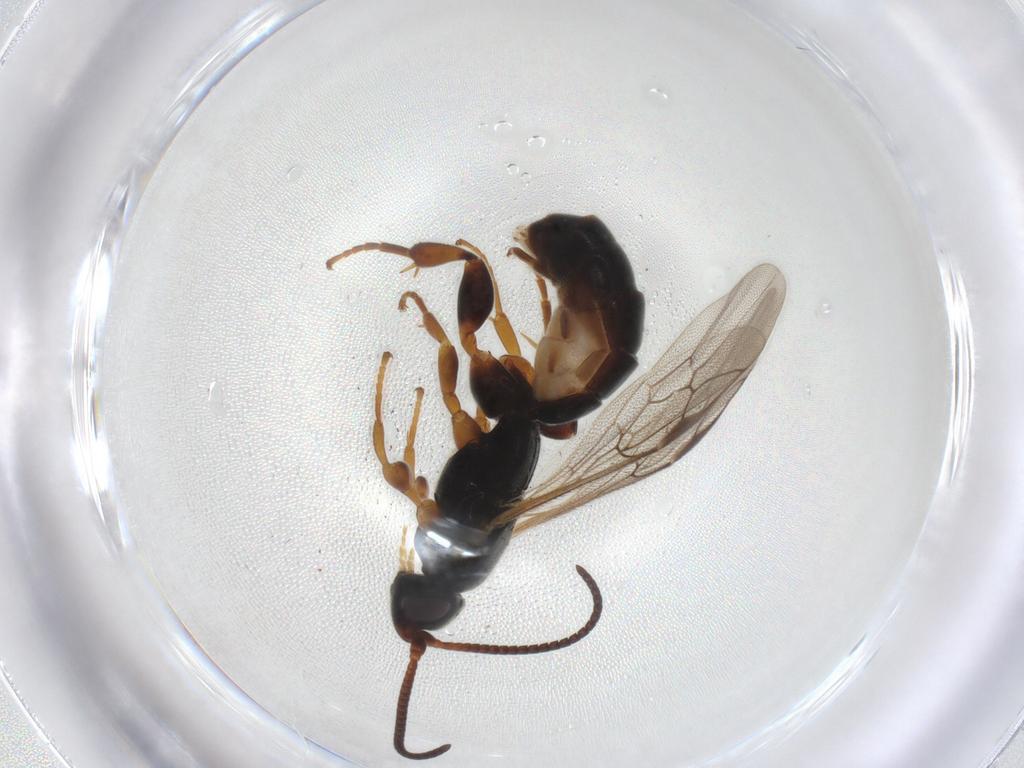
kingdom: Animalia
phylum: Arthropoda
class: Insecta
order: Hymenoptera
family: Ichneumonidae
